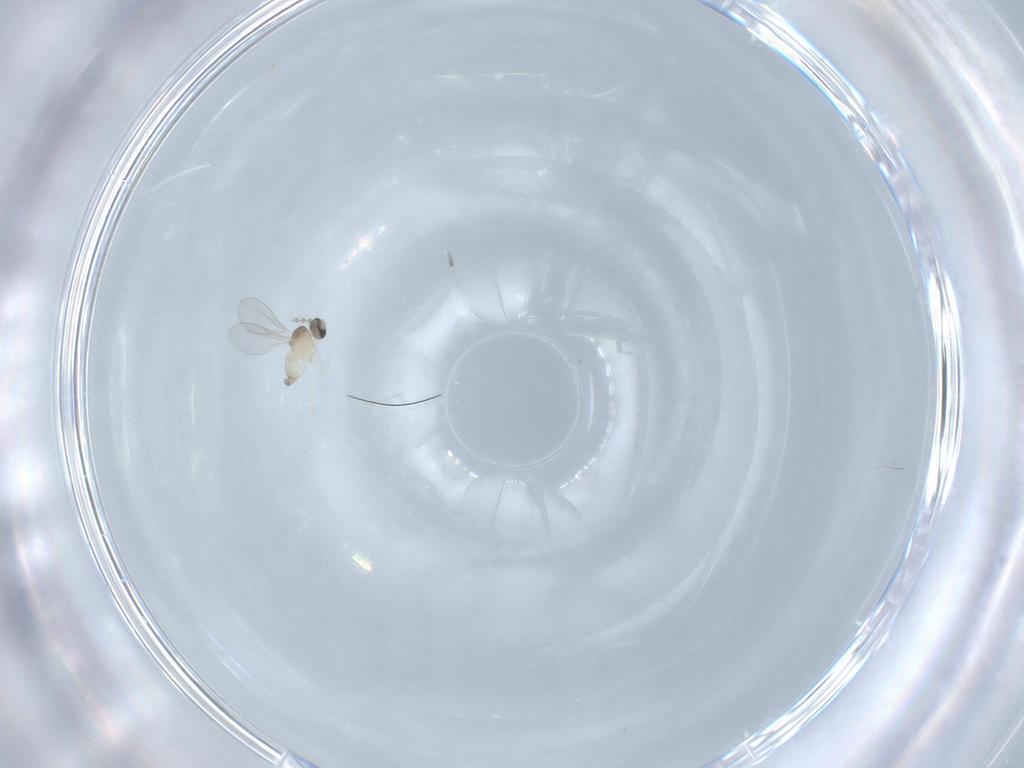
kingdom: Animalia
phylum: Arthropoda
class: Insecta
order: Diptera
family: Cecidomyiidae
